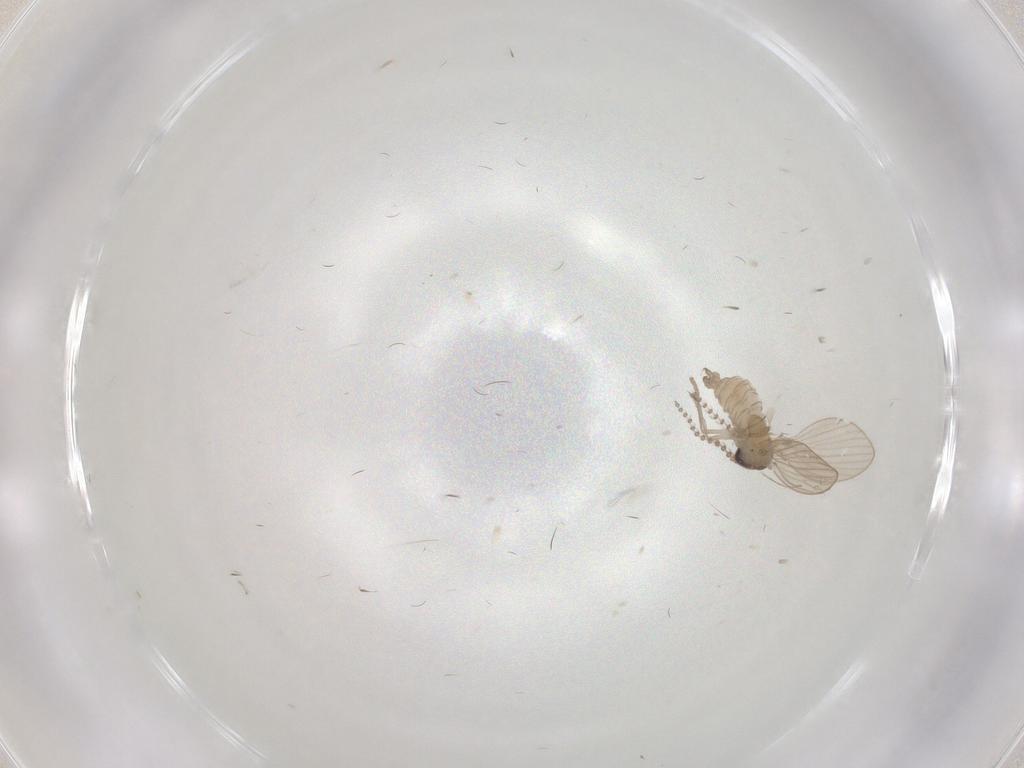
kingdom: Animalia
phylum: Arthropoda
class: Insecta
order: Diptera
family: Psychodidae
